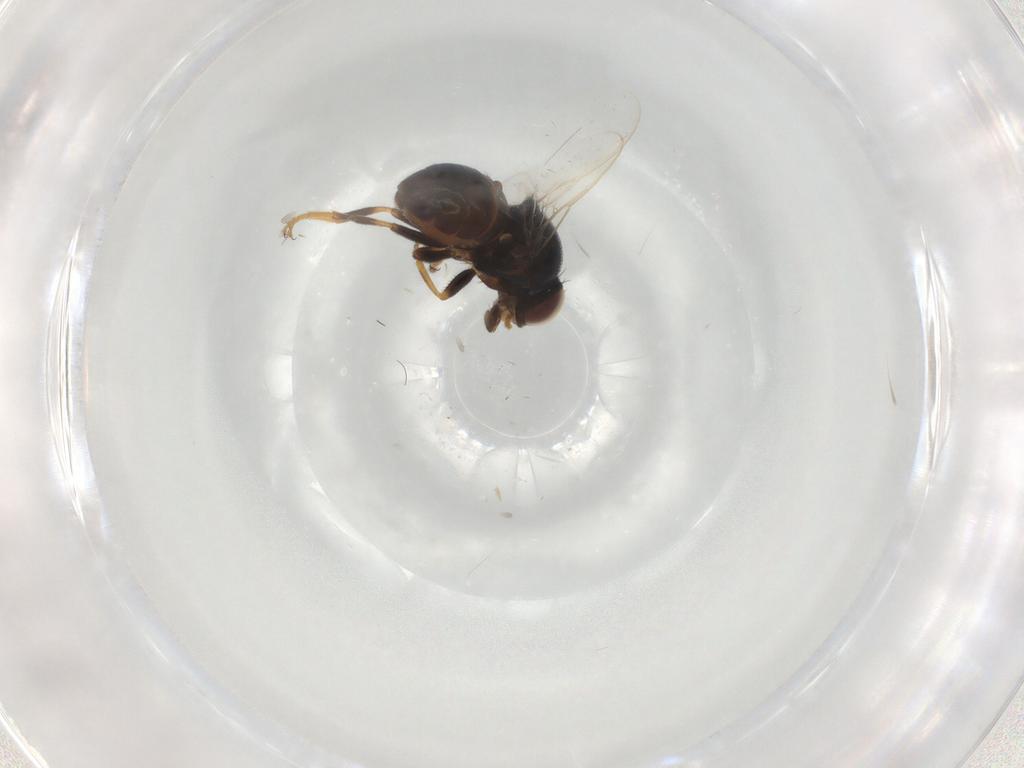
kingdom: Animalia
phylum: Arthropoda
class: Insecta
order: Diptera
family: Chloropidae
